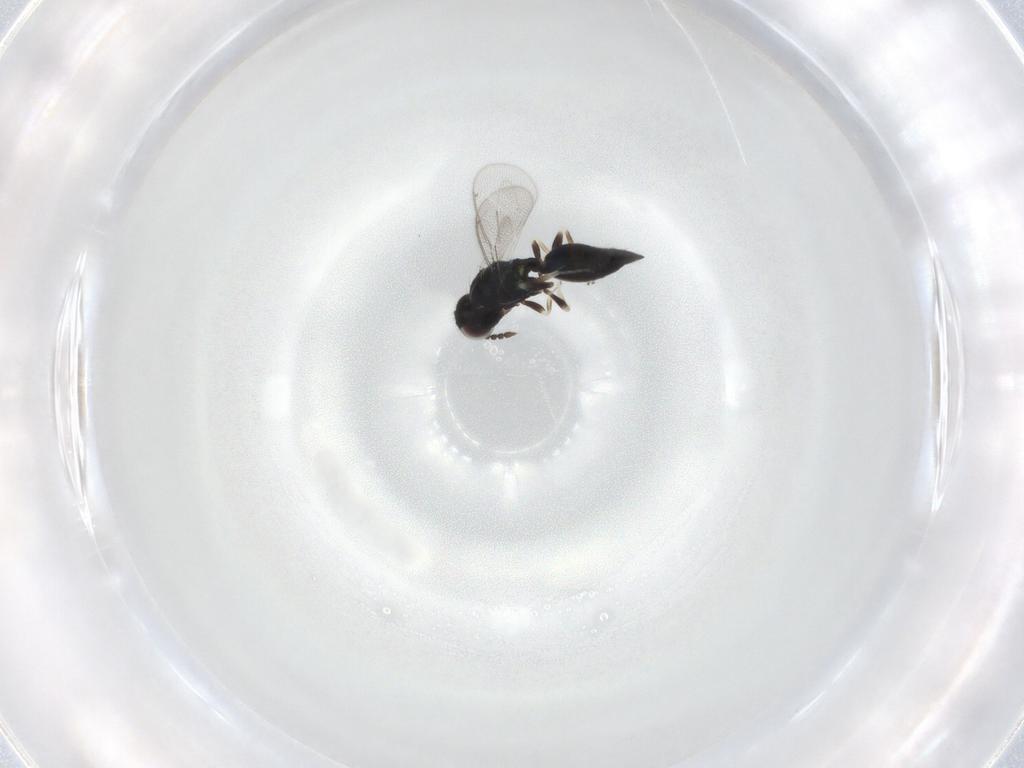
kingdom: Animalia
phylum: Arthropoda
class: Insecta
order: Hymenoptera
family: Eulophidae
